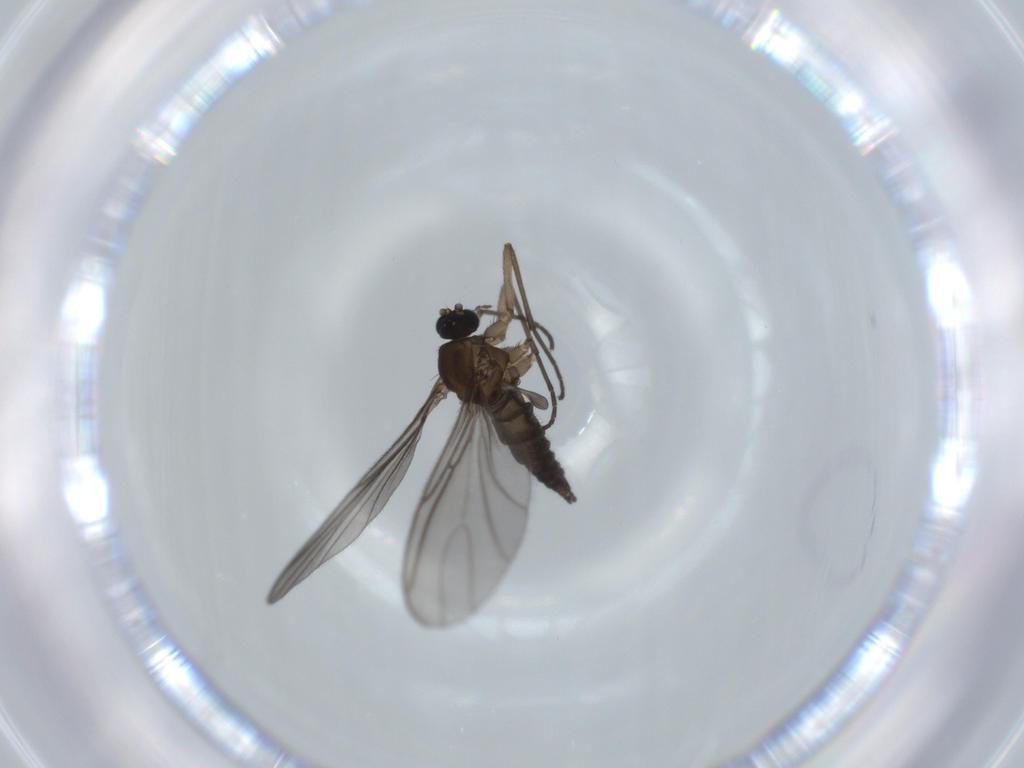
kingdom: Animalia
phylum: Arthropoda
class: Insecta
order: Diptera
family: Sciaridae
